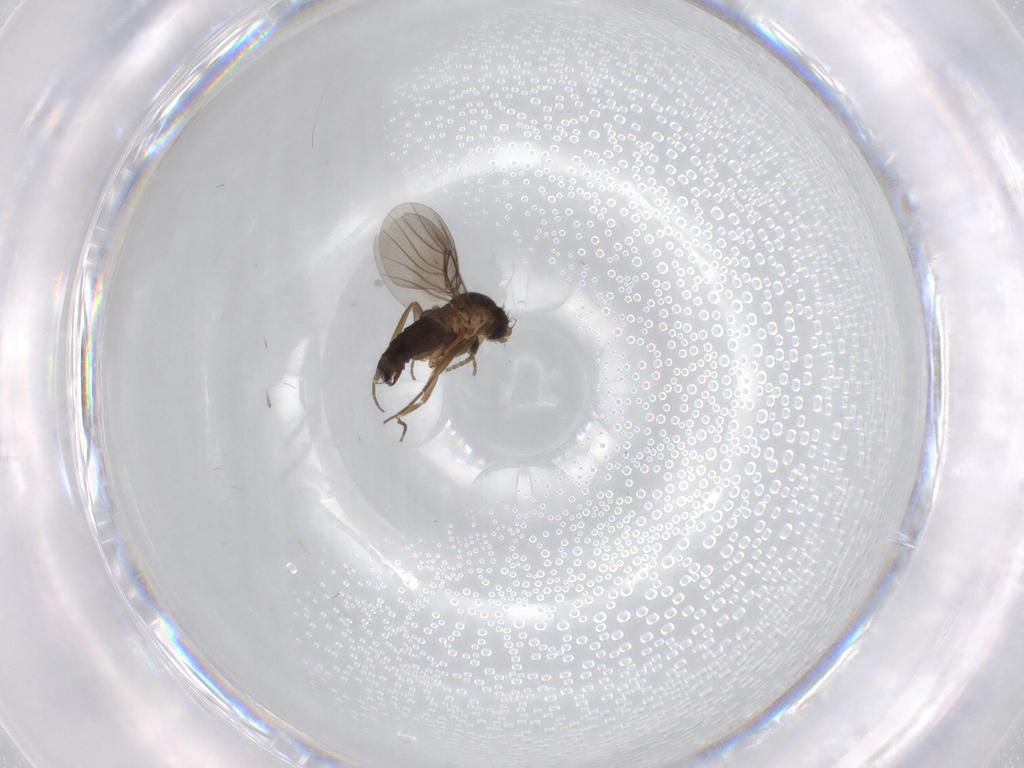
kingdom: Animalia
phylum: Arthropoda
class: Insecta
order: Diptera
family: Phoridae
